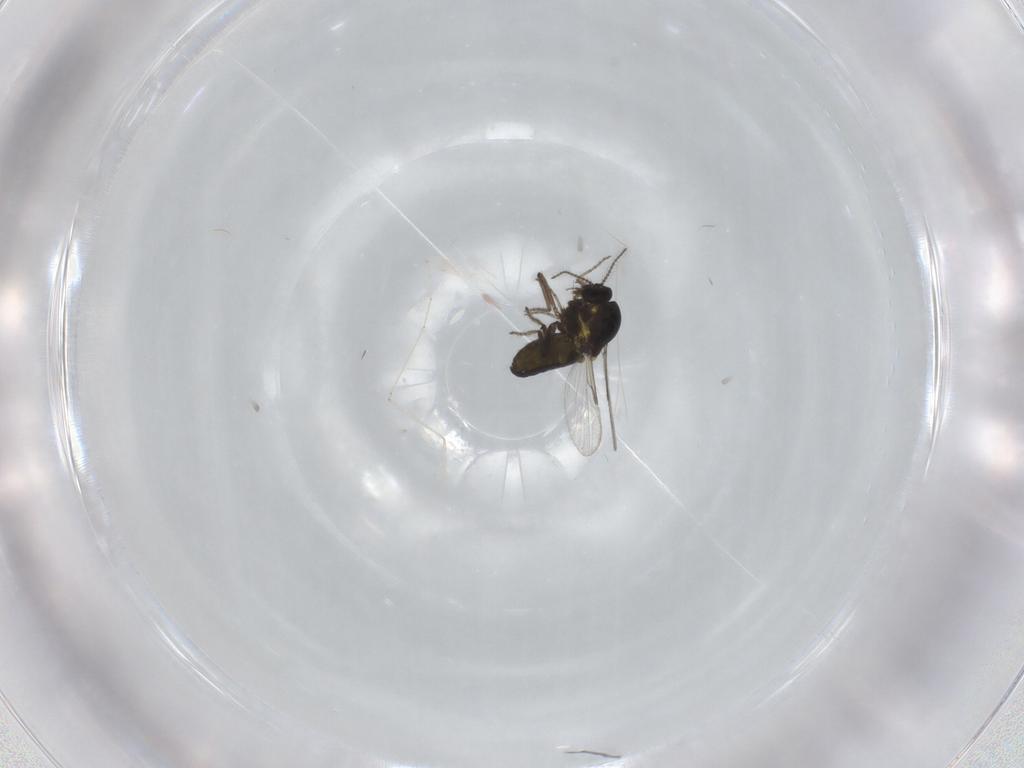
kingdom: Animalia
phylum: Arthropoda
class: Insecta
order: Diptera
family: Ceratopogonidae
